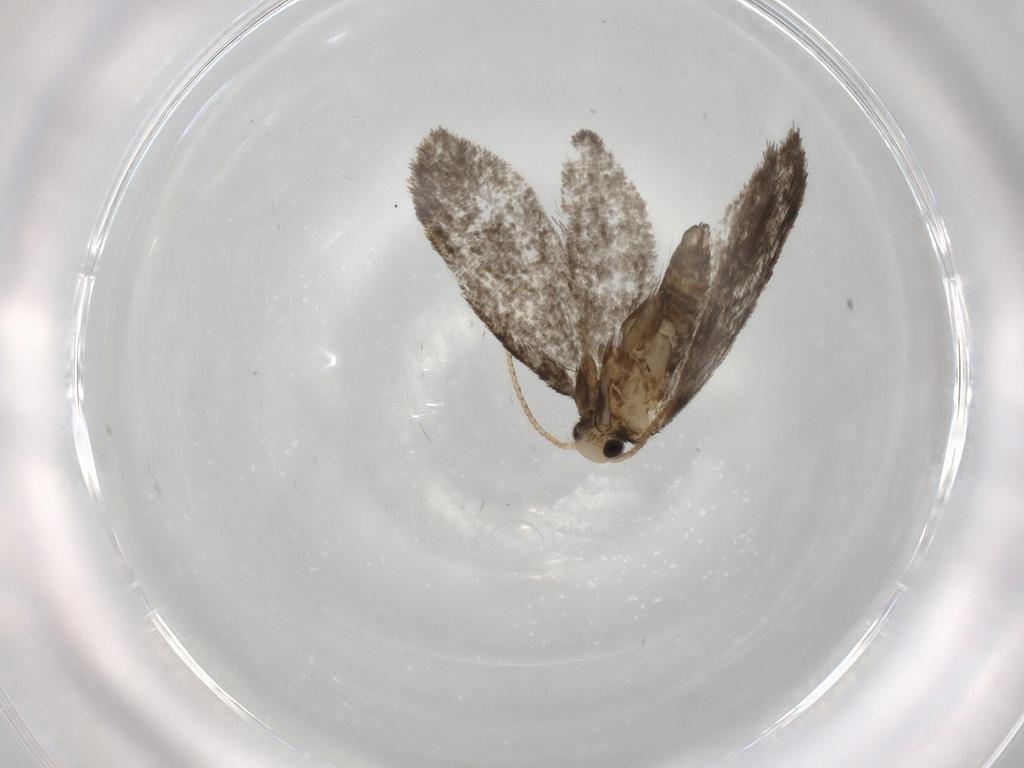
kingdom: Animalia
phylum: Arthropoda
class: Insecta
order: Lepidoptera
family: Psychidae
